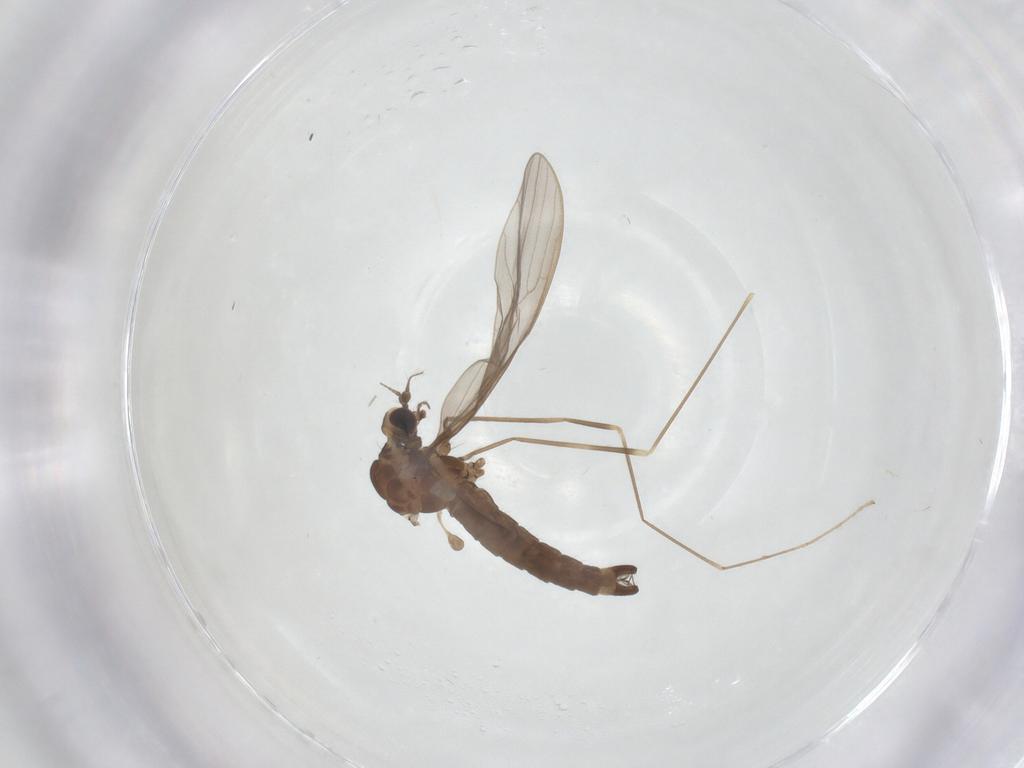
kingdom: Animalia
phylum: Arthropoda
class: Insecta
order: Diptera
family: Limoniidae
